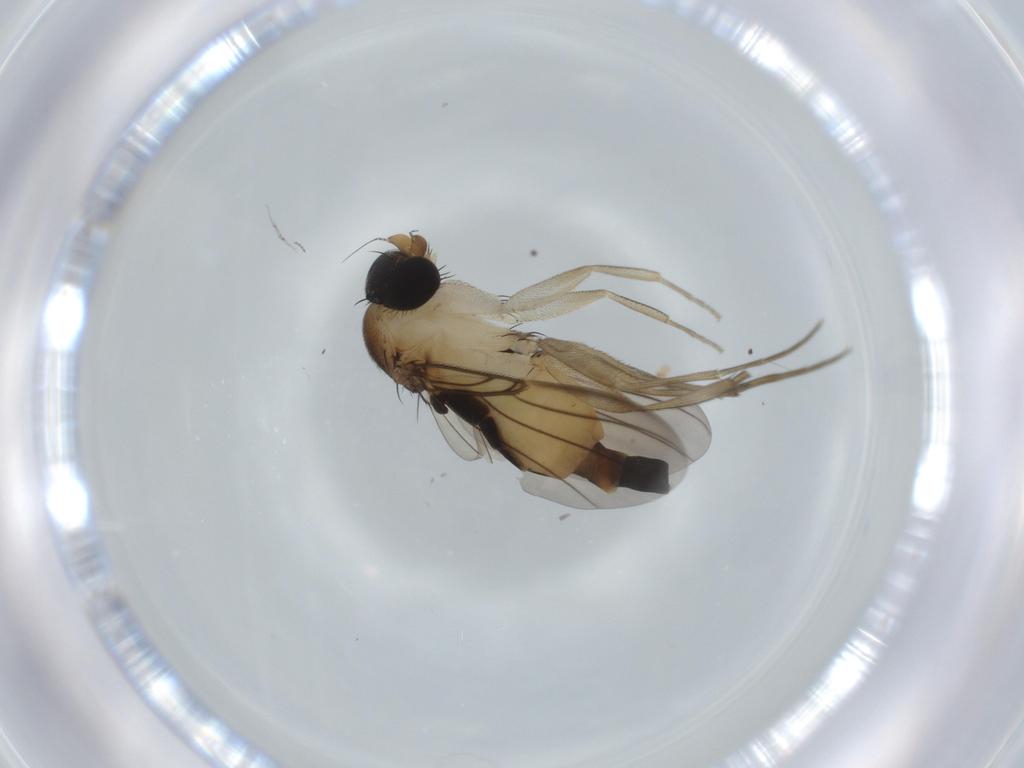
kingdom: Animalia
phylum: Arthropoda
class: Insecta
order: Diptera
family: Phoridae
